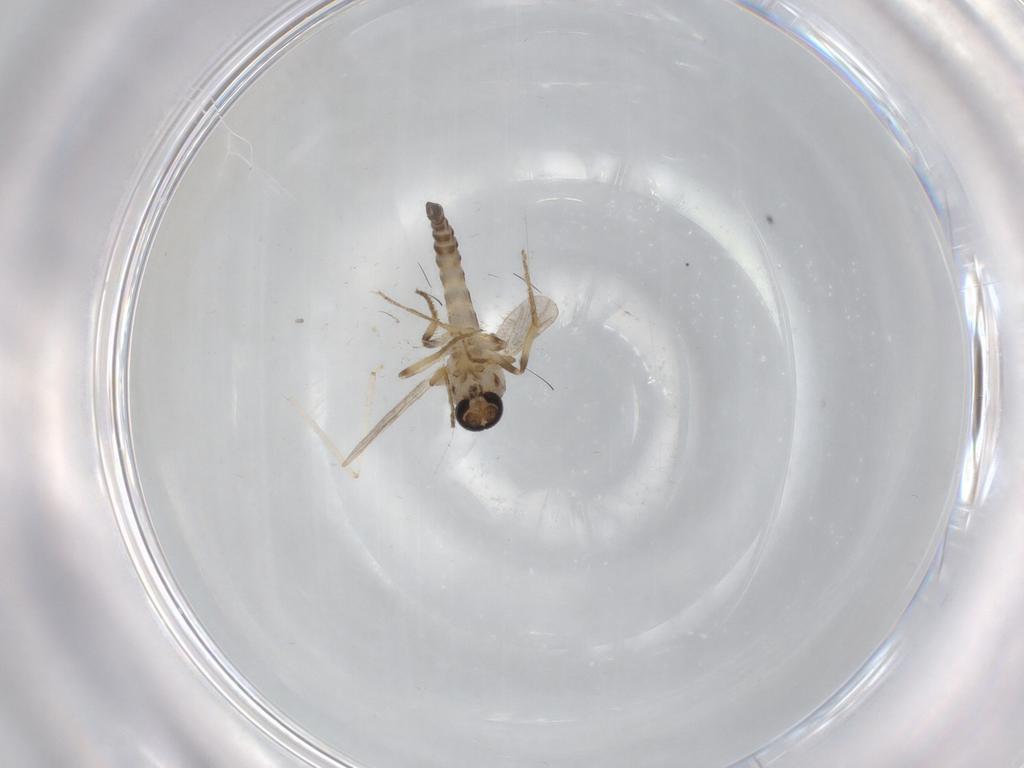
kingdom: Animalia
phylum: Arthropoda
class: Insecta
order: Diptera
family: Ceratopogonidae
